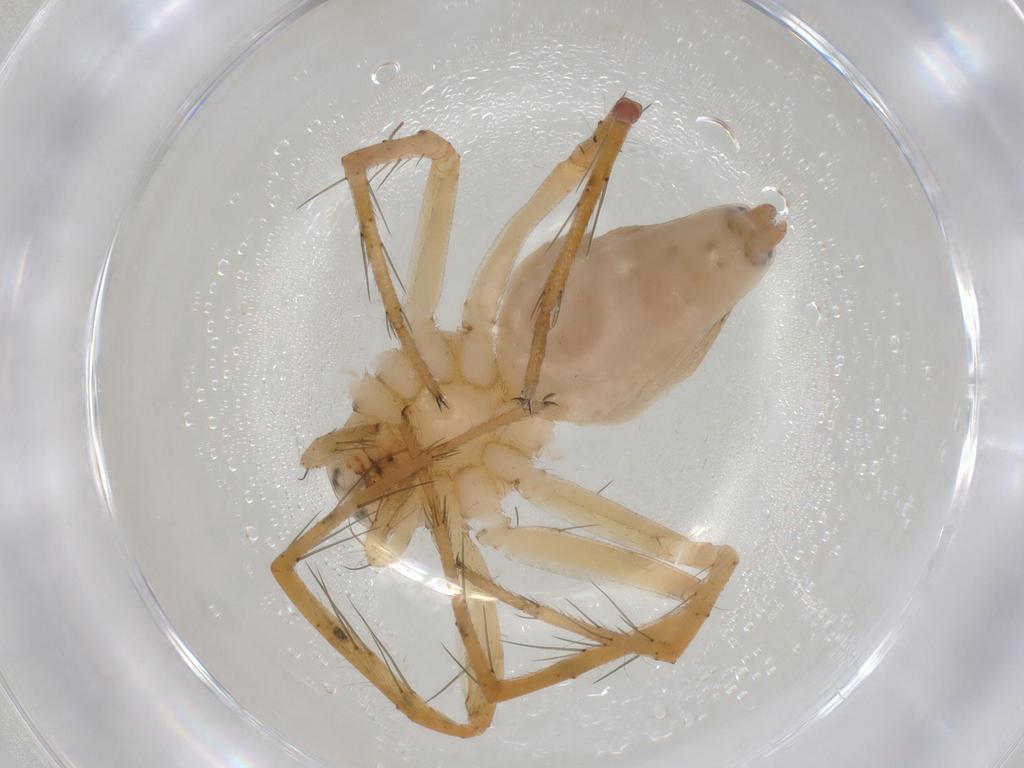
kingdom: Animalia
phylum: Arthropoda
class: Arachnida
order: Araneae
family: Oxyopidae
